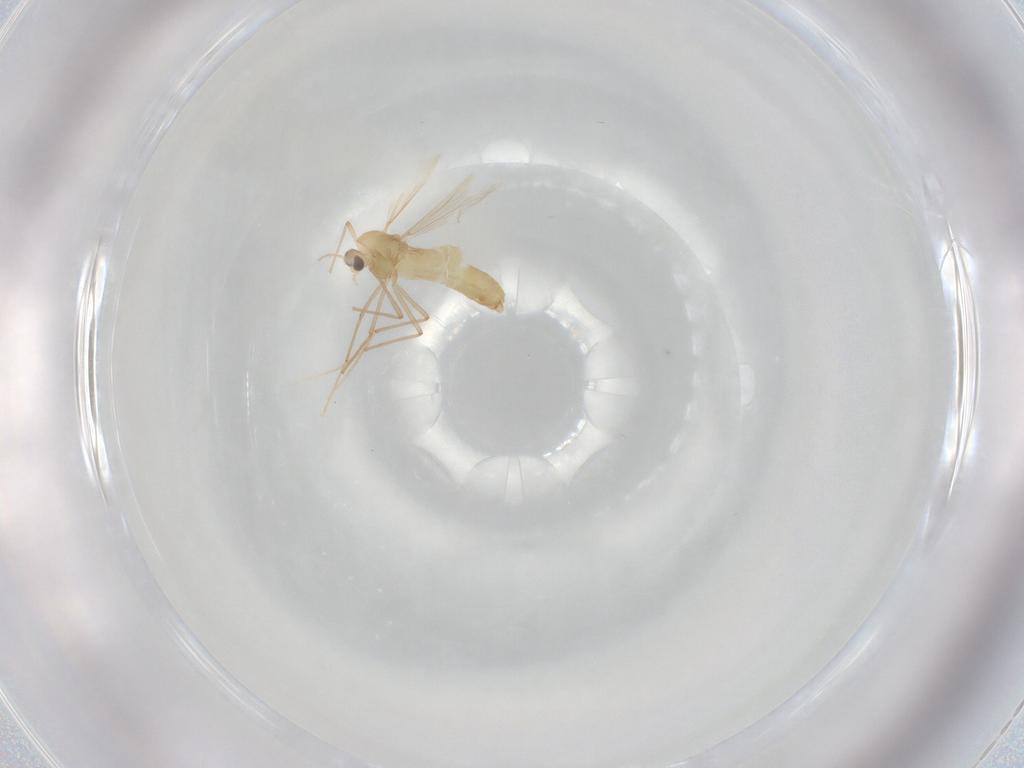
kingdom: Animalia
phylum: Arthropoda
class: Insecta
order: Diptera
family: Chironomidae
